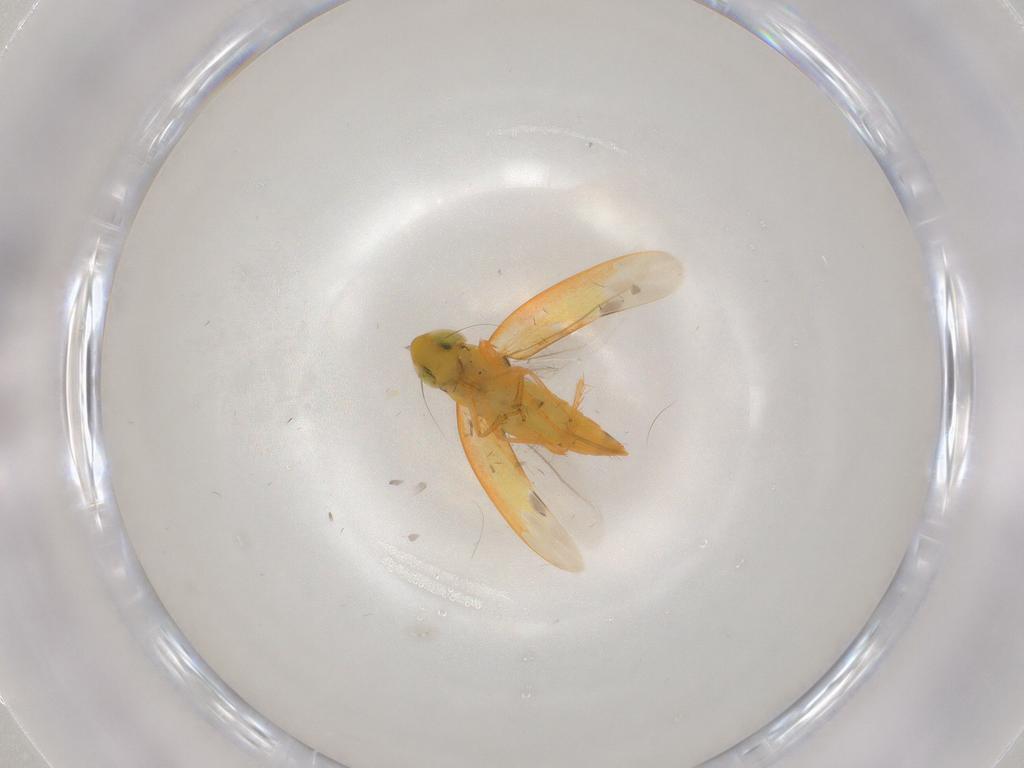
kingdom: Animalia
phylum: Arthropoda
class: Insecta
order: Hemiptera
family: Cicadellidae
